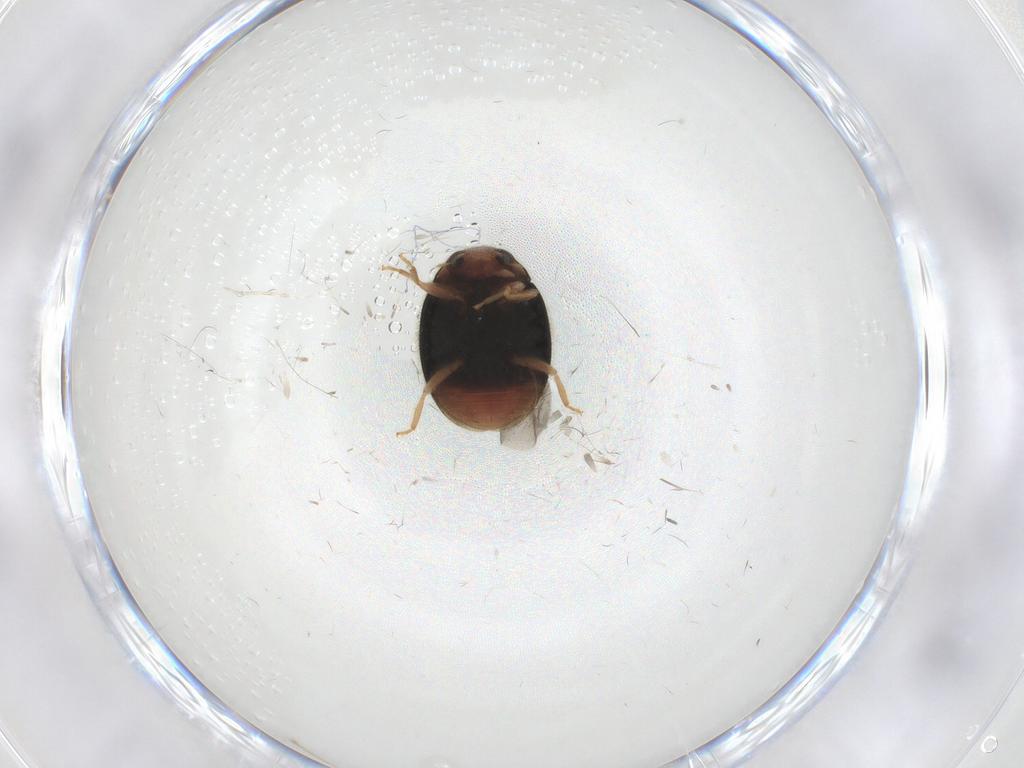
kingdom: Animalia
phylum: Arthropoda
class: Insecta
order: Coleoptera
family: Coccinellidae
